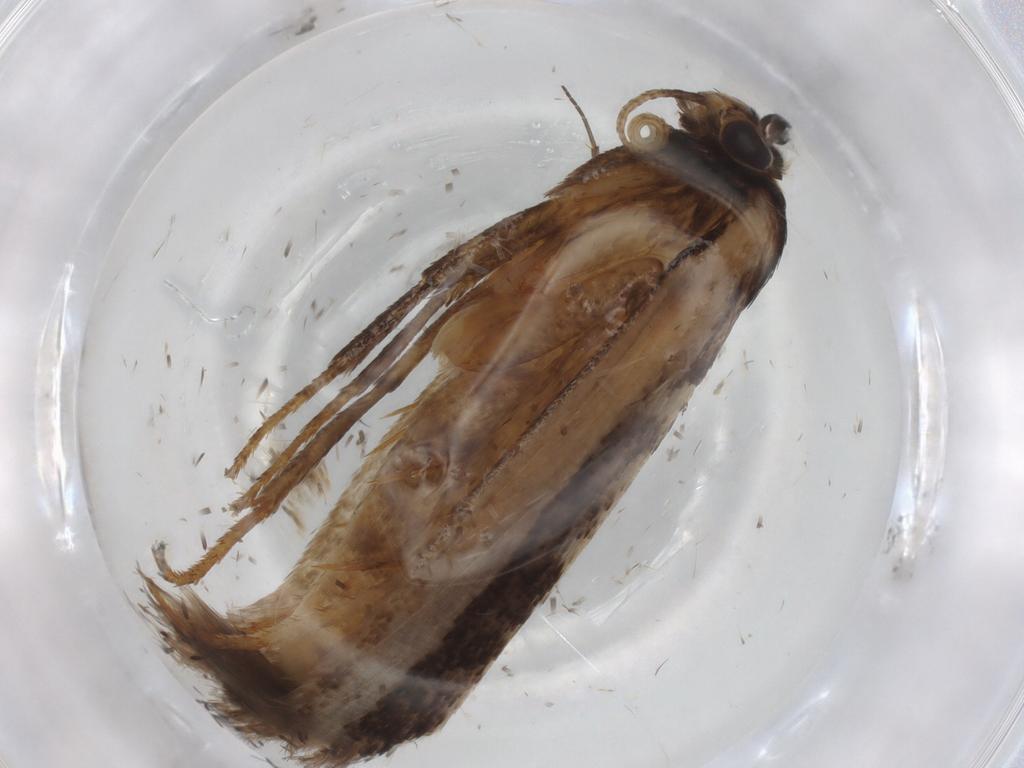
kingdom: Animalia
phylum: Arthropoda
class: Insecta
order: Lepidoptera
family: Gelechiidae
